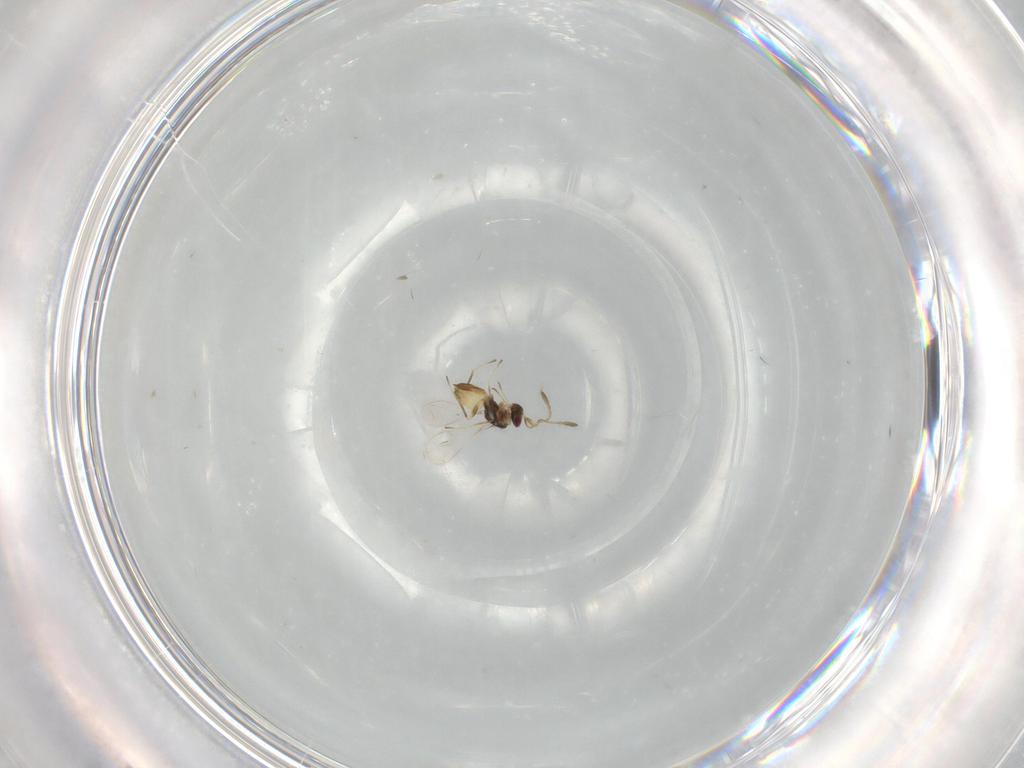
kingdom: Animalia
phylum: Arthropoda
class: Insecta
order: Hymenoptera
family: Mymaridae
